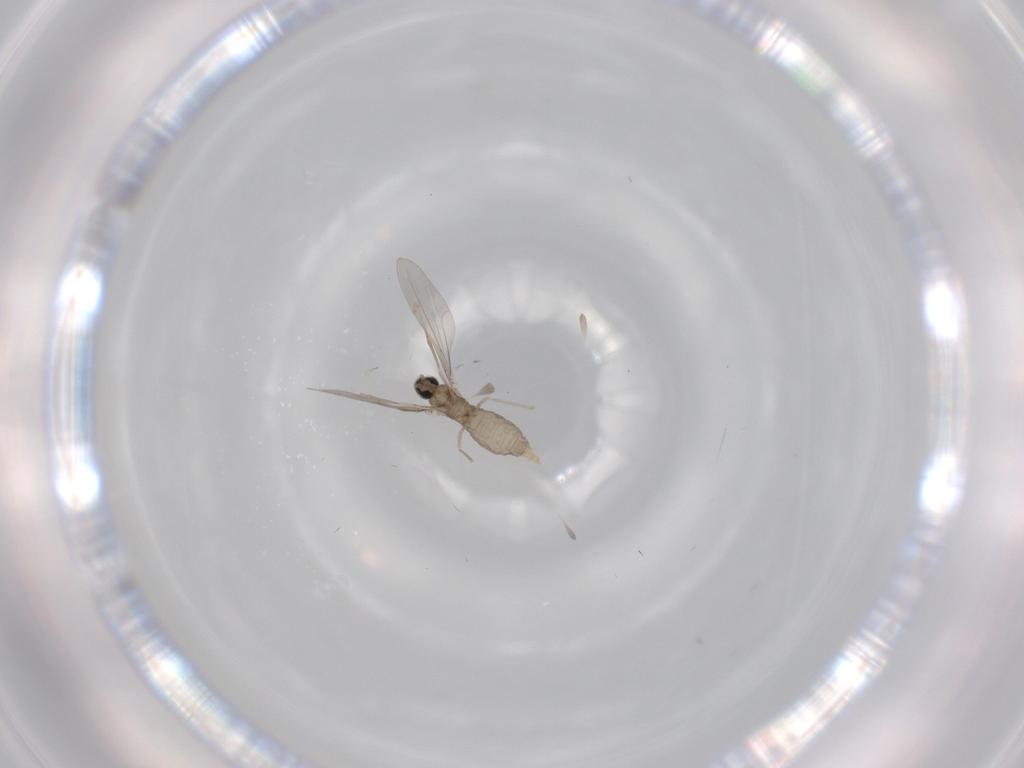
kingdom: Animalia
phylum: Arthropoda
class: Insecta
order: Diptera
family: Cecidomyiidae
